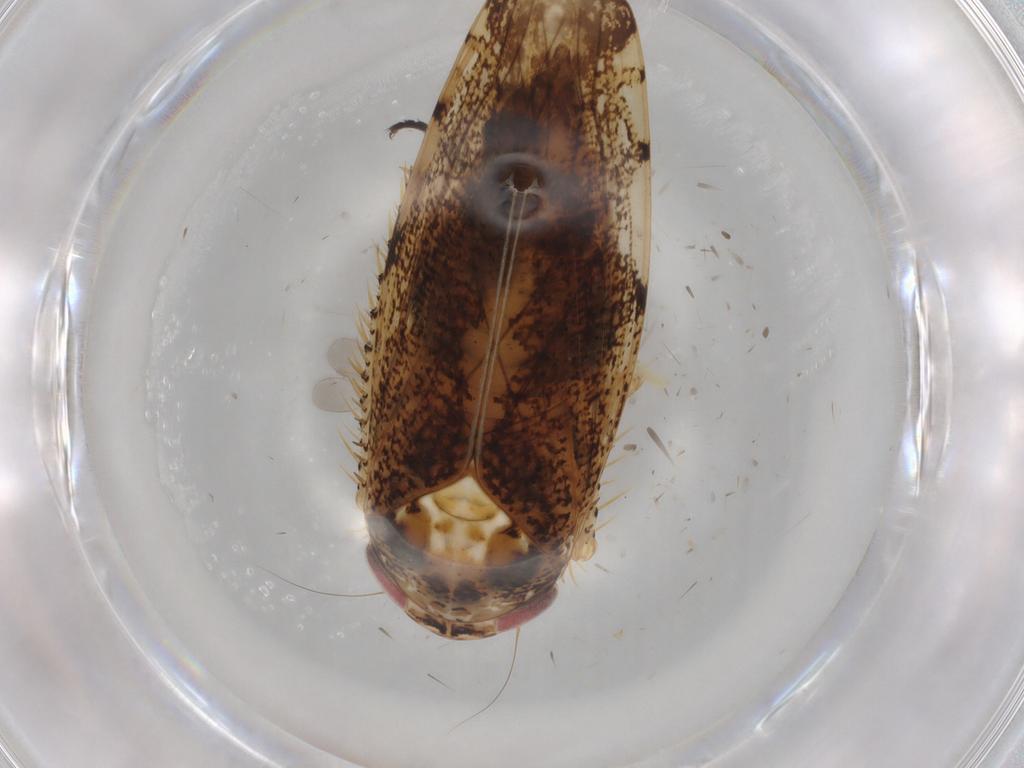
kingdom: Animalia
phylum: Arthropoda
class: Insecta
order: Hemiptera
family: Cicadellidae
